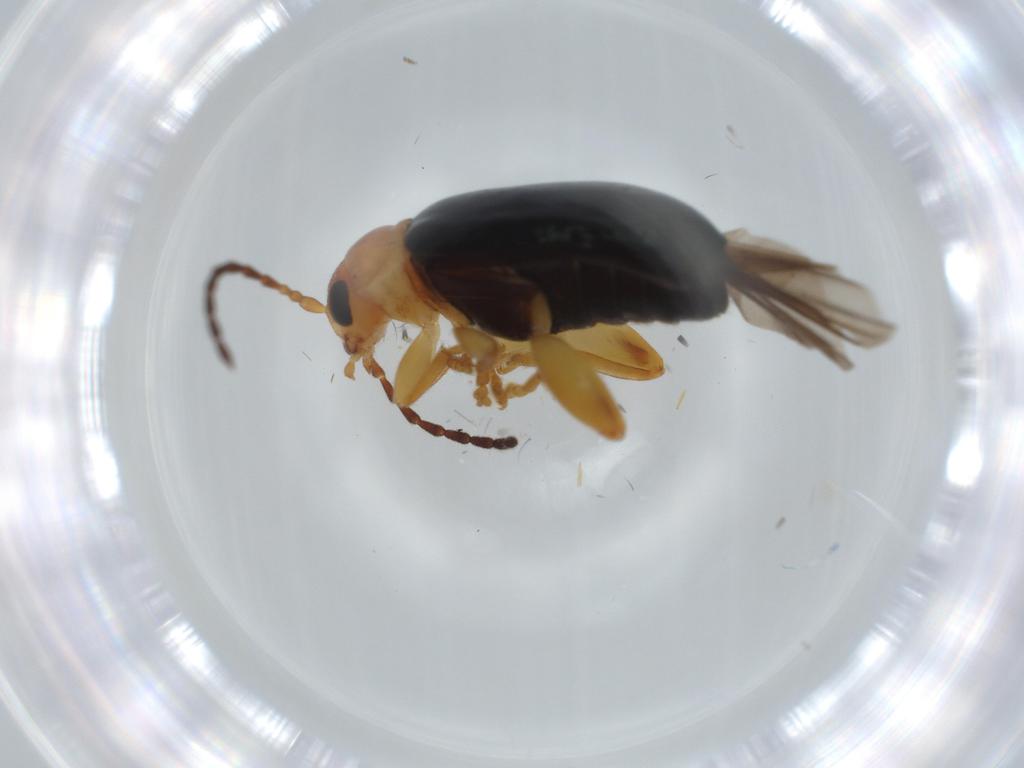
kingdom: Animalia
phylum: Arthropoda
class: Insecta
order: Coleoptera
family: Chrysomelidae
